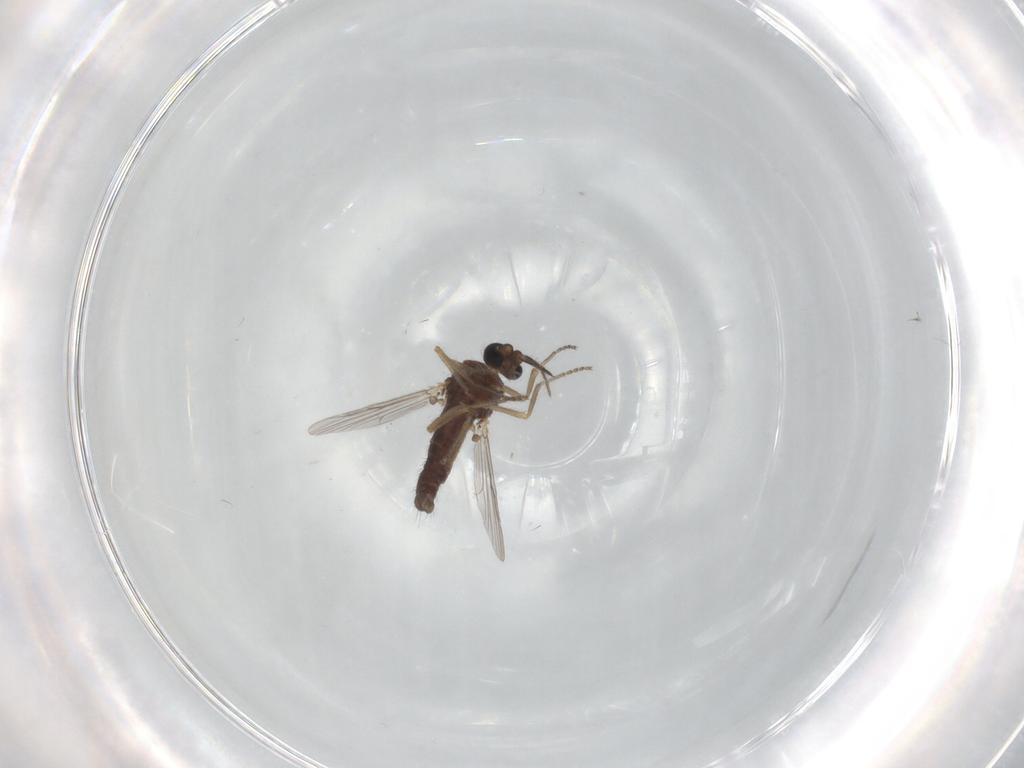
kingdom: Animalia
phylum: Arthropoda
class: Insecta
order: Diptera
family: Ceratopogonidae
